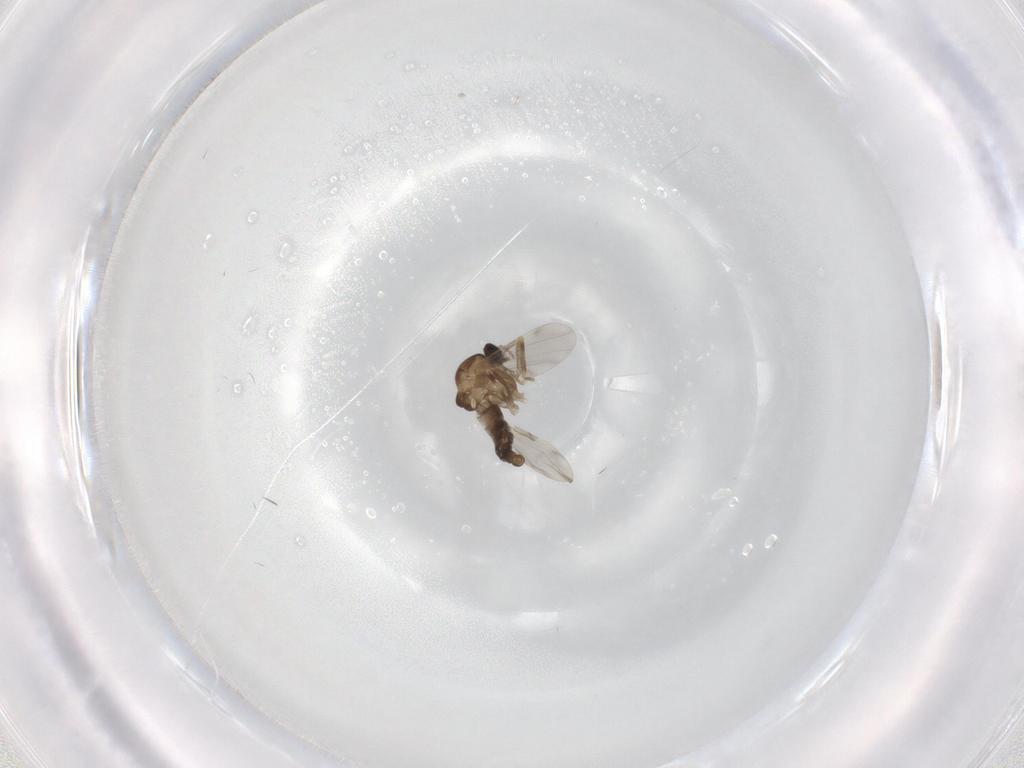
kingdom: Animalia
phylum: Arthropoda
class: Insecta
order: Diptera
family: Ceratopogonidae
